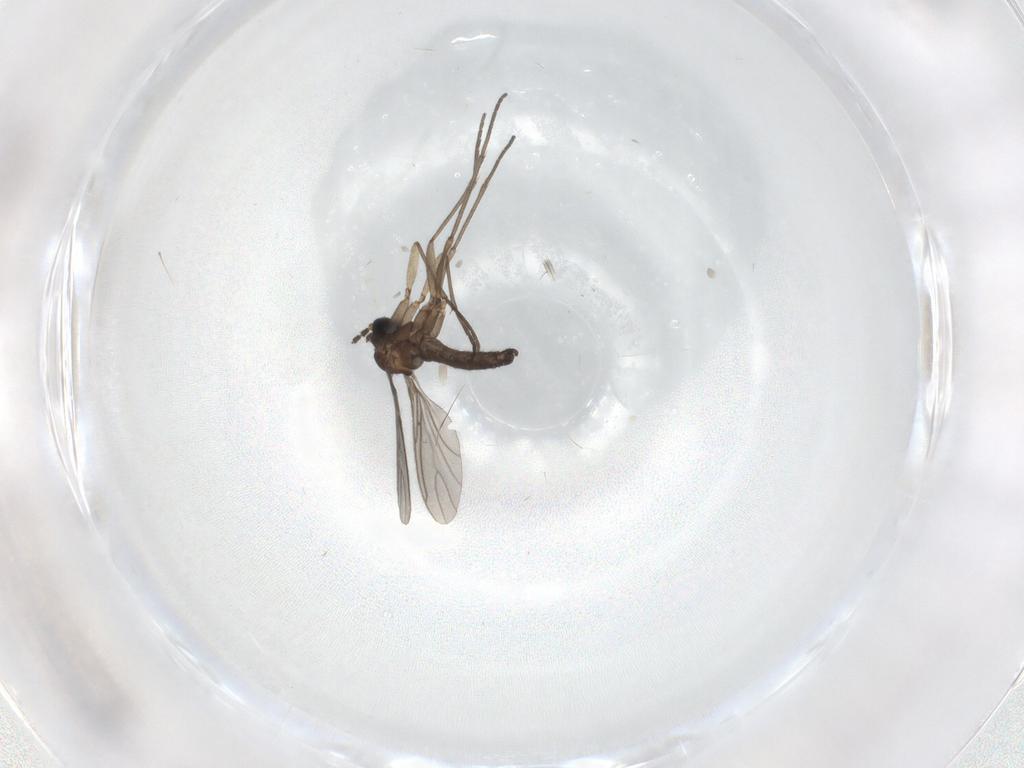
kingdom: Animalia
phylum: Arthropoda
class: Insecta
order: Diptera
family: Sciaridae
